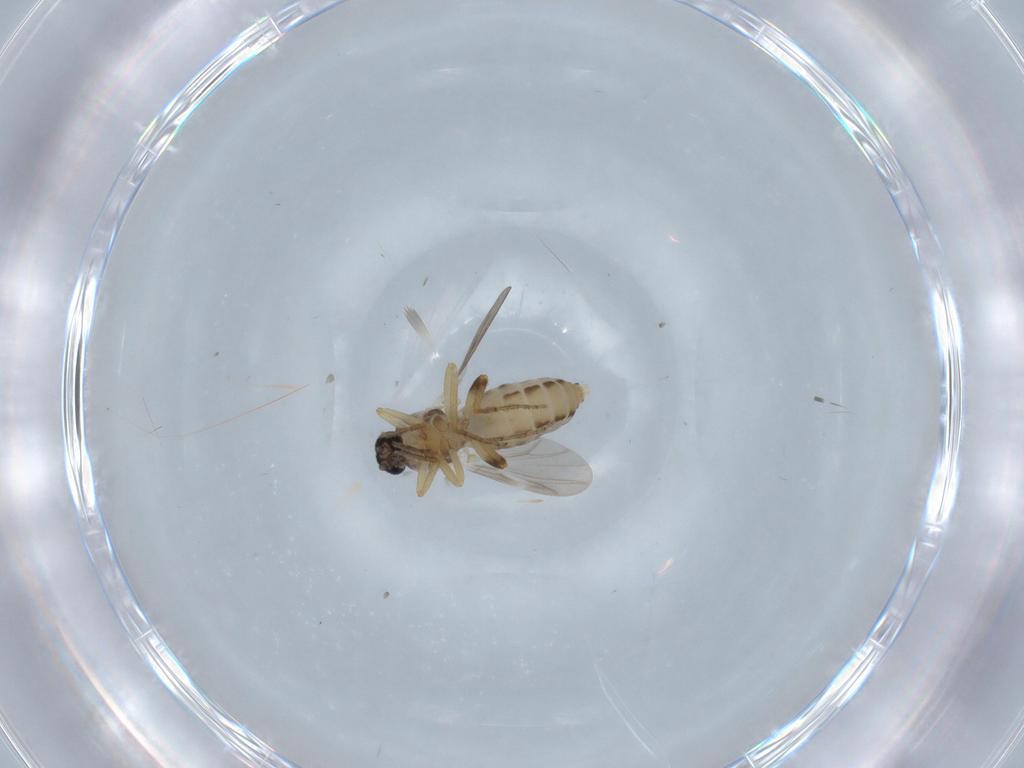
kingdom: Animalia
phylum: Arthropoda
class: Insecta
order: Diptera
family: Ceratopogonidae
